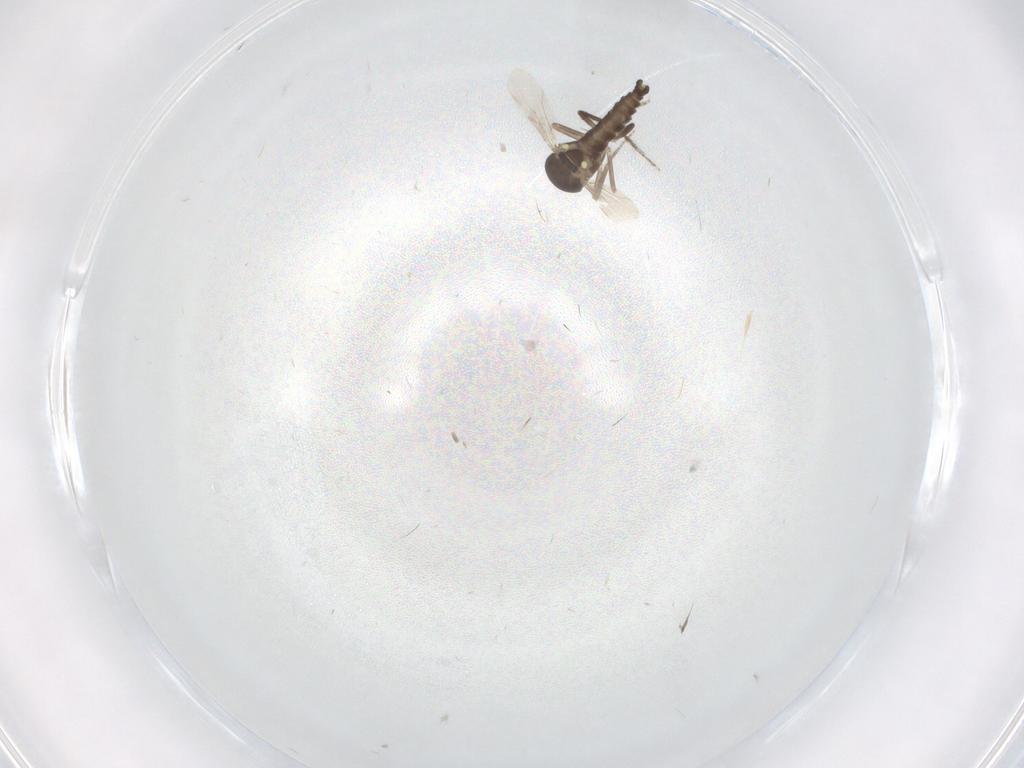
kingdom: Animalia
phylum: Arthropoda
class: Insecta
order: Diptera
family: Ceratopogonidae
